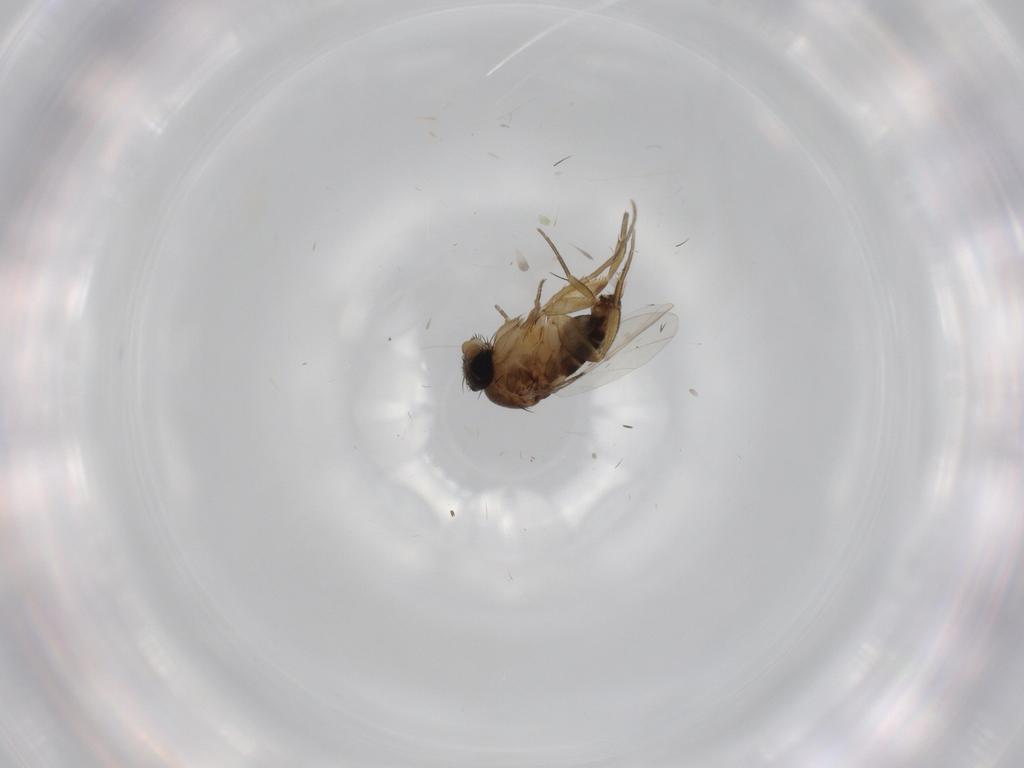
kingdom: Animalia
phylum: Arthropoda
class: Insecta
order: Diptera
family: Phoridae
